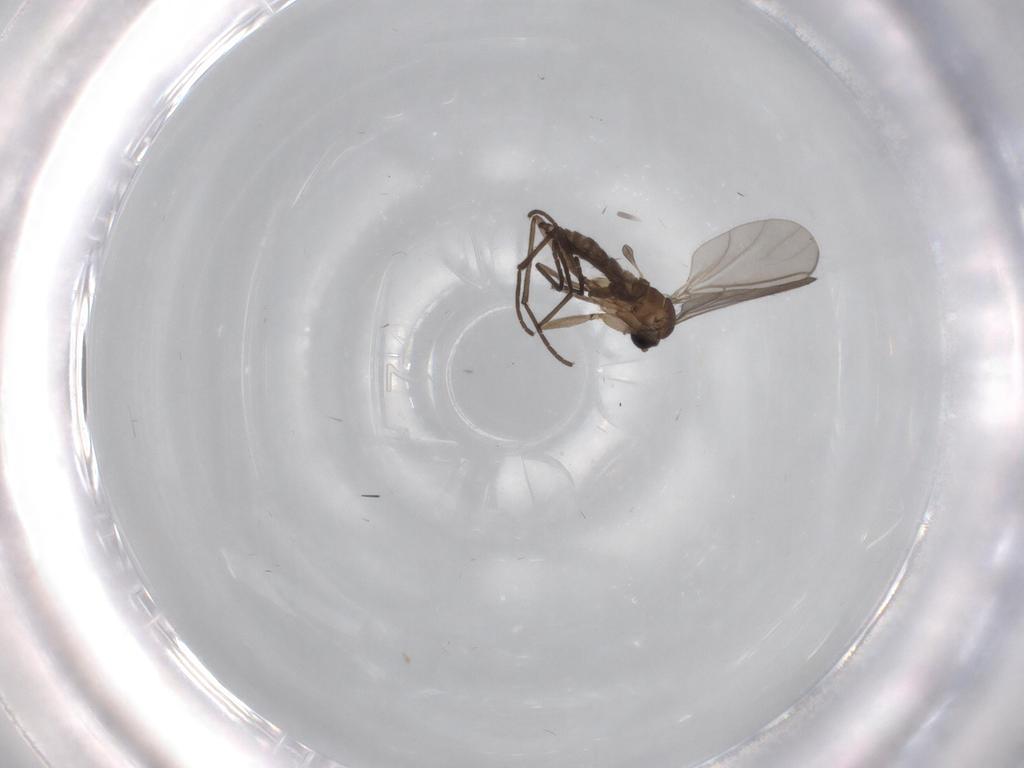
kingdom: Animalia
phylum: Arthropoda
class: Insecta
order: Diptera
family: Sciaridae
